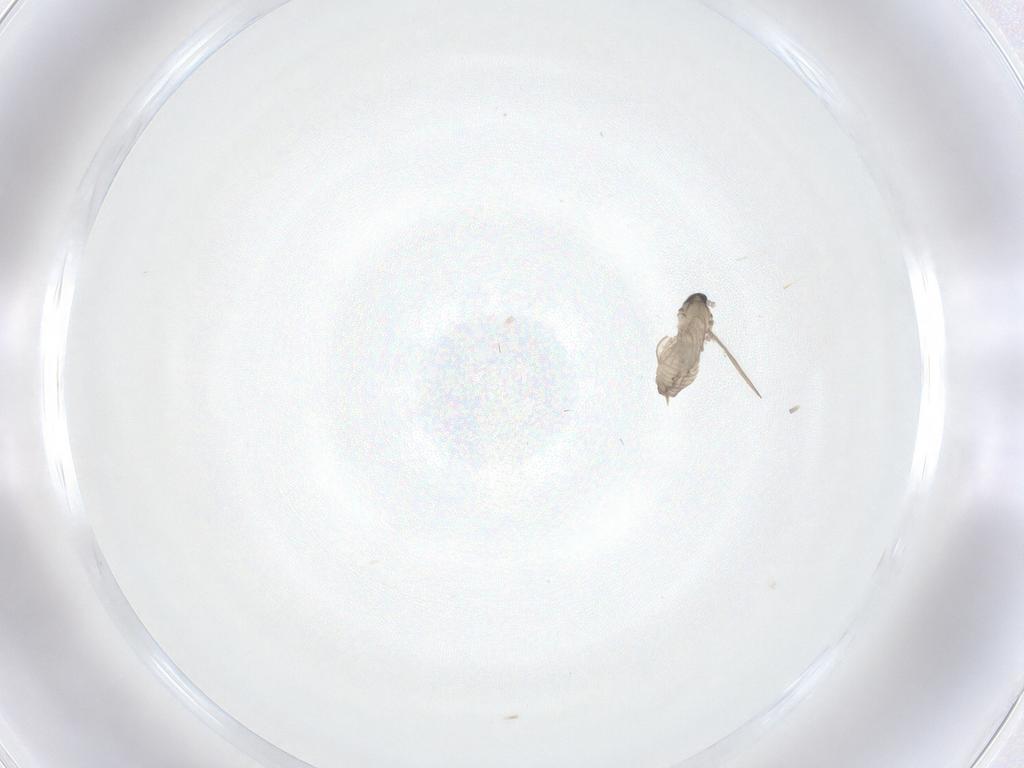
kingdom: Animalia
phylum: Arthropoda
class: Insecta
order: Diptera
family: Psychodidae
